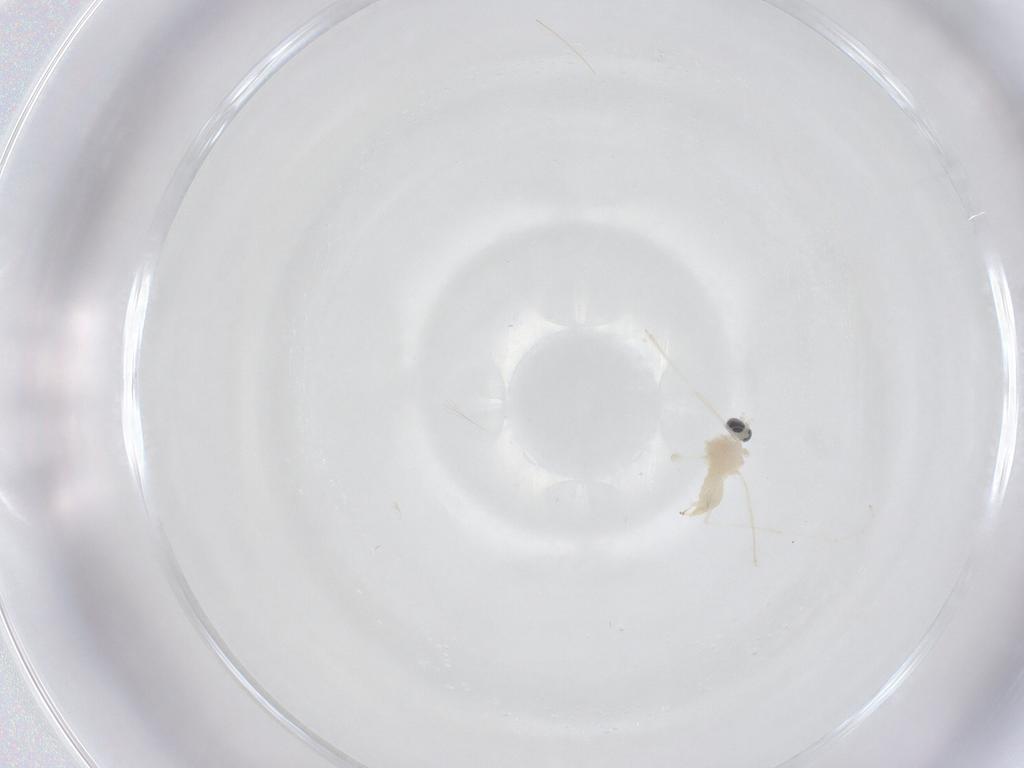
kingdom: Animalia
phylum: Arthropoda
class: Insecta
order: Diptera
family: Cecidomyiidae
